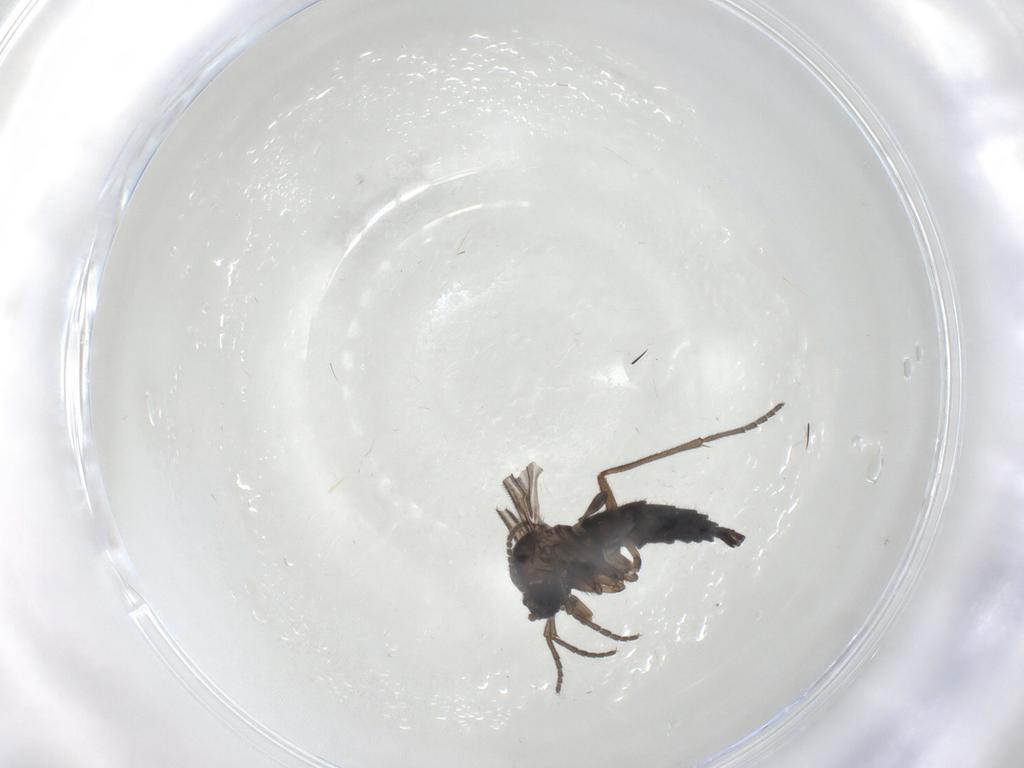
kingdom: Animalia
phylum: Arthropoda
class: Insecta
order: Diptera
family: Sciaridae
